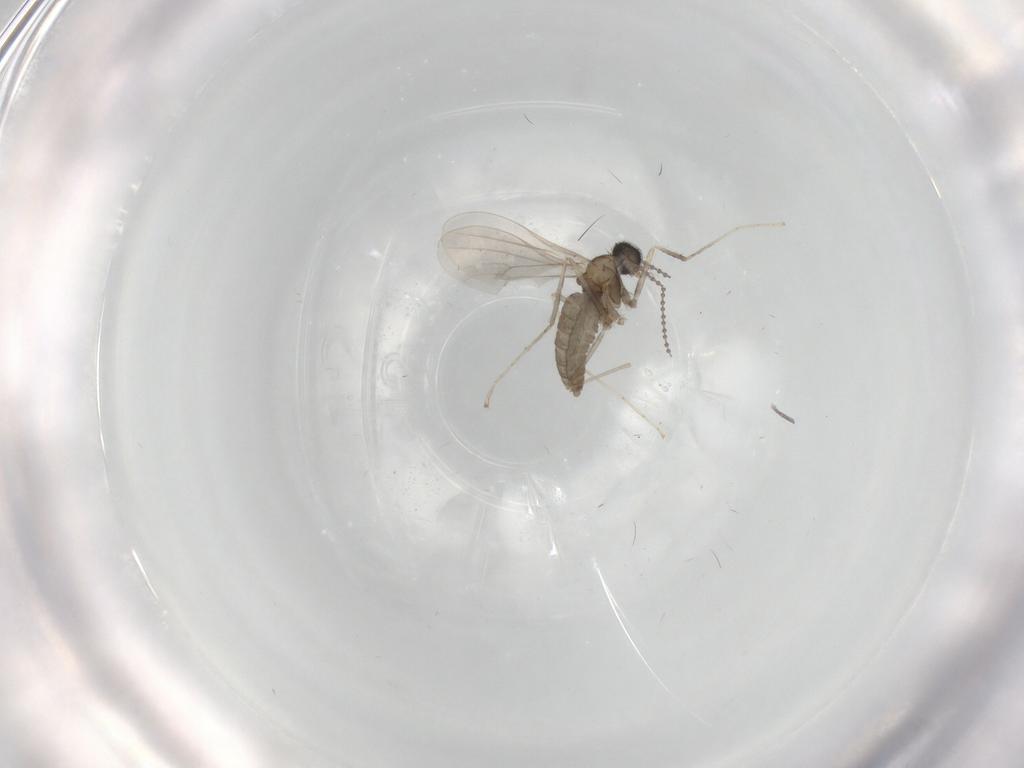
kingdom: Animalia
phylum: Arthropoda
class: Insecta
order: Diptera
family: Cecidomyiidae
